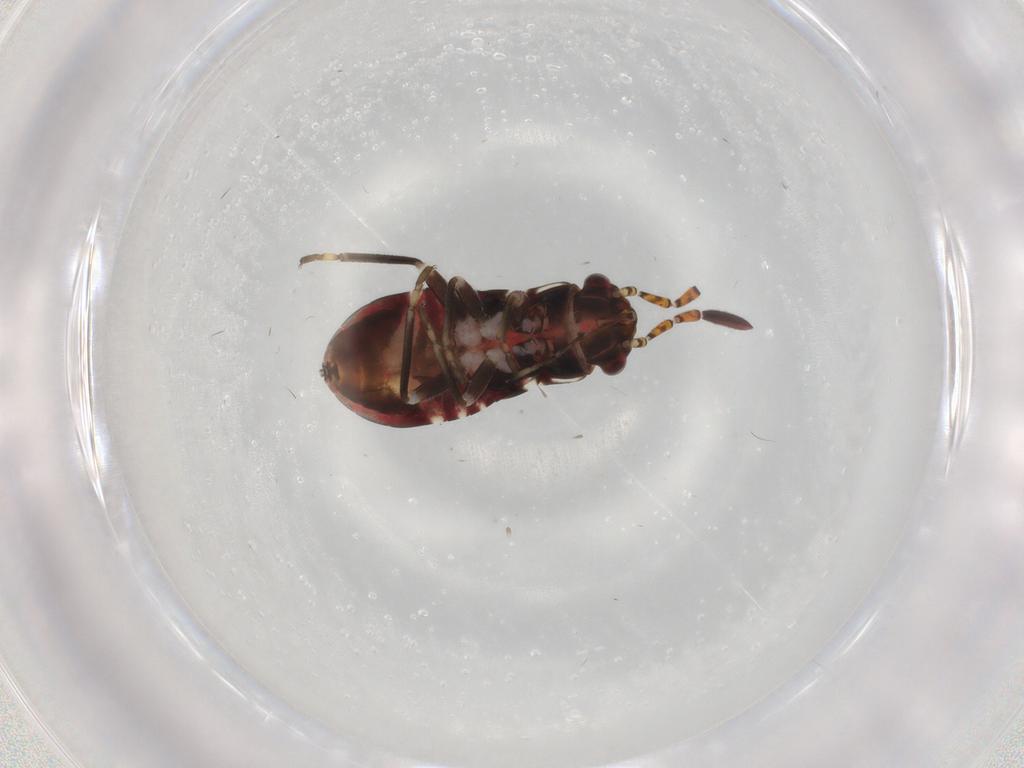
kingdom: Animalia
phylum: Arthropoda
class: Insecta
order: Hemiptera
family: Rhyparochromidae
